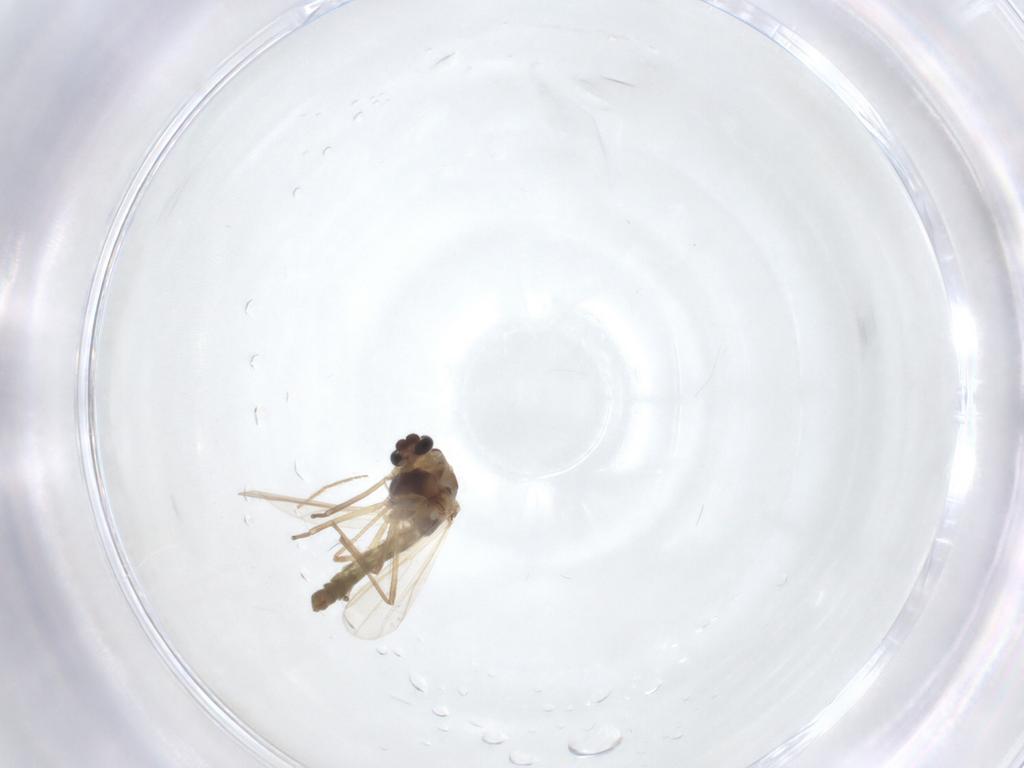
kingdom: Animalia
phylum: Arthropoda
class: Insecta
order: Diptera
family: Chironomidae
